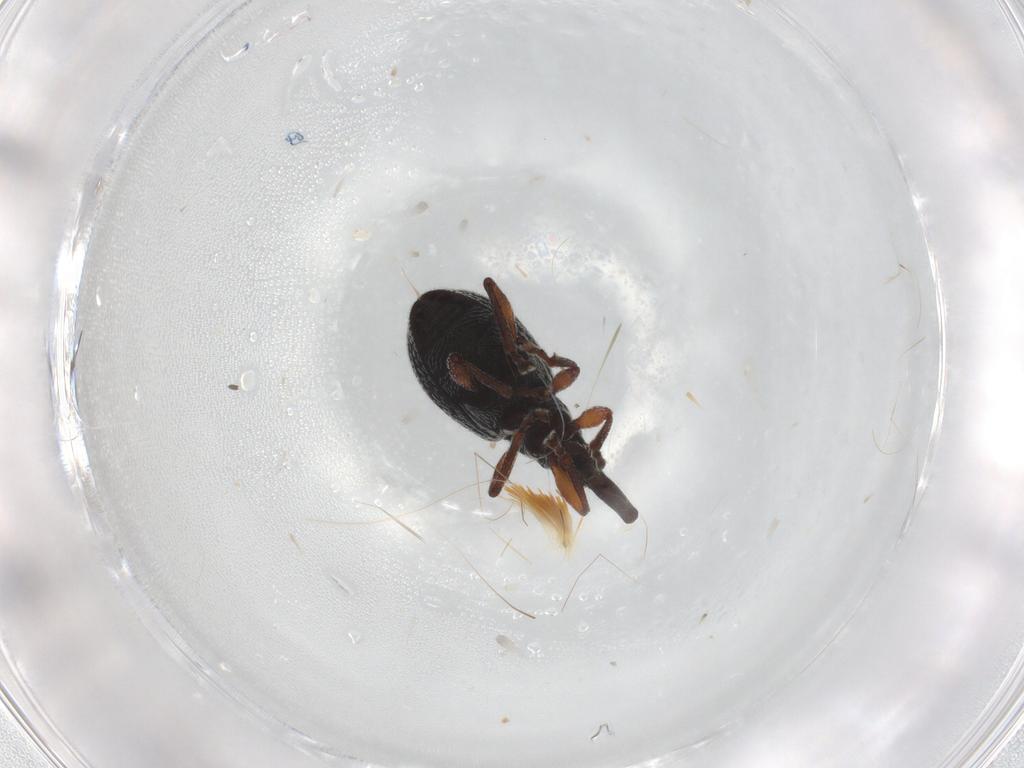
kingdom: Animalia
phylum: Arthropoda
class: Insecta
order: Coleoptera
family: Brentidae
